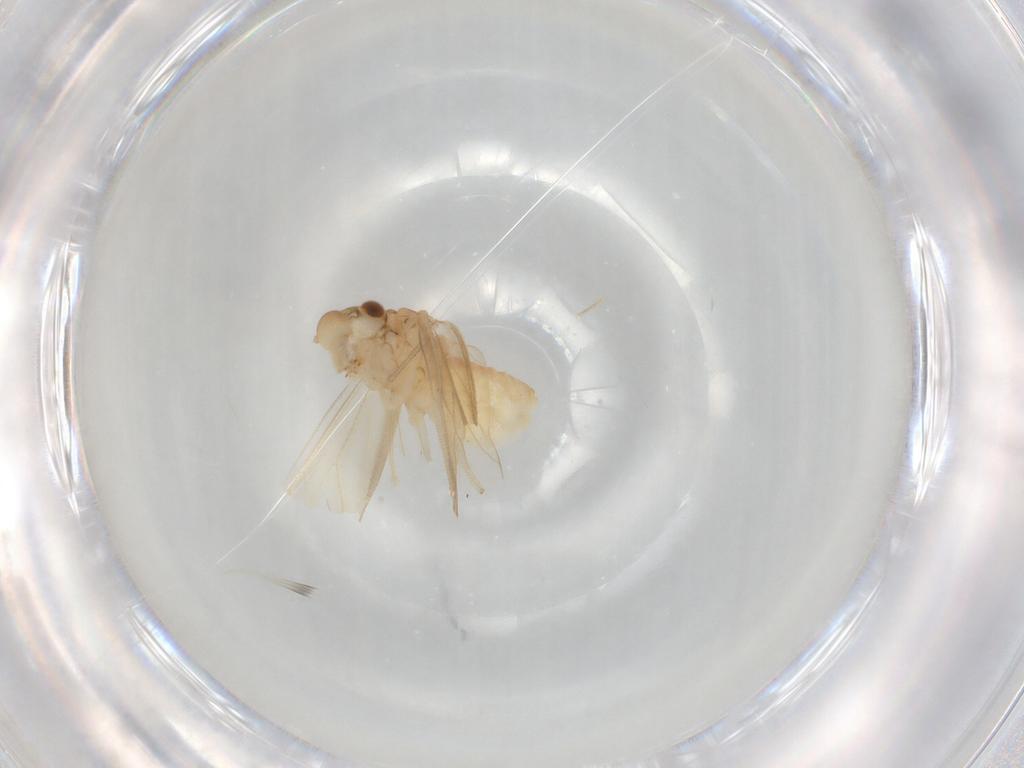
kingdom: Animalia
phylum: Arthropoda
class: Insecta
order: Psocodea
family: Caeciliusidae
